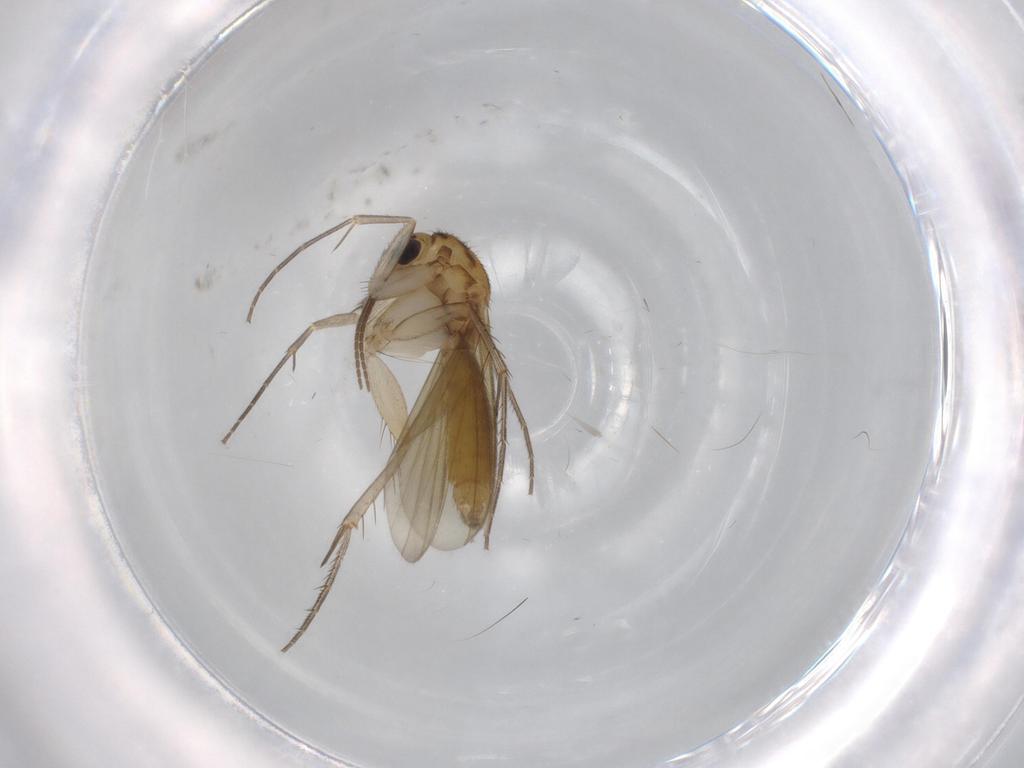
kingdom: Animalia
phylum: Arthropoda
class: Insecta
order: Diptera
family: Mycetophilidae
